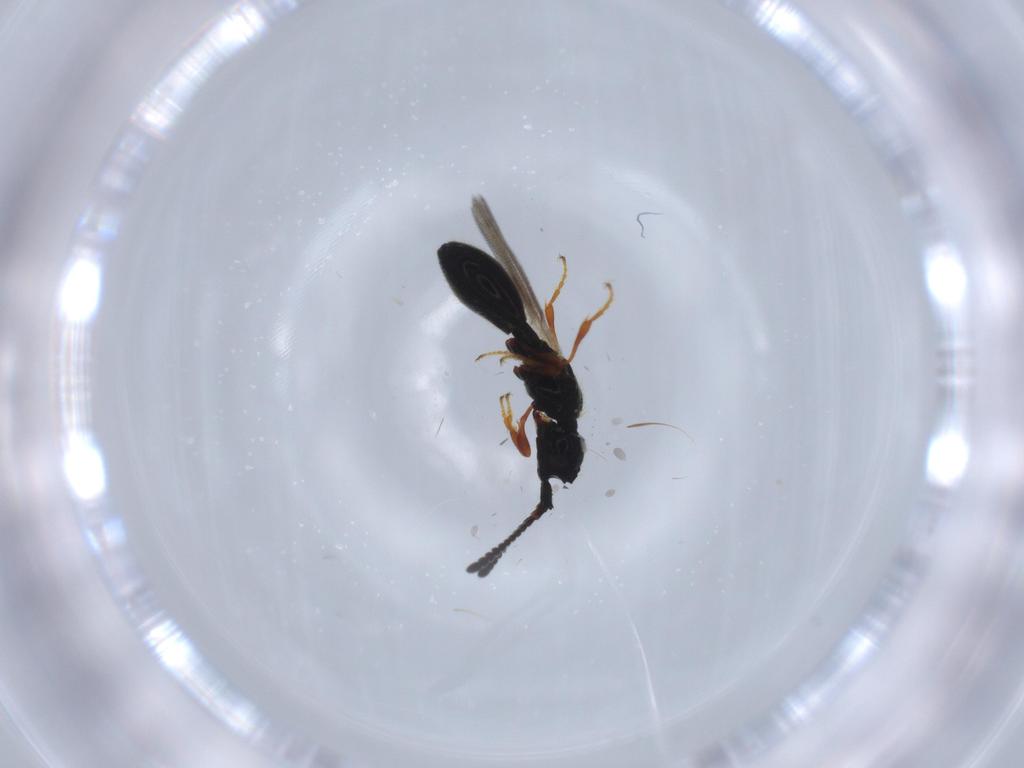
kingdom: Animalia
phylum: Arthropoda
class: Insecta
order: Hymenoptera
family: Diapriidae
